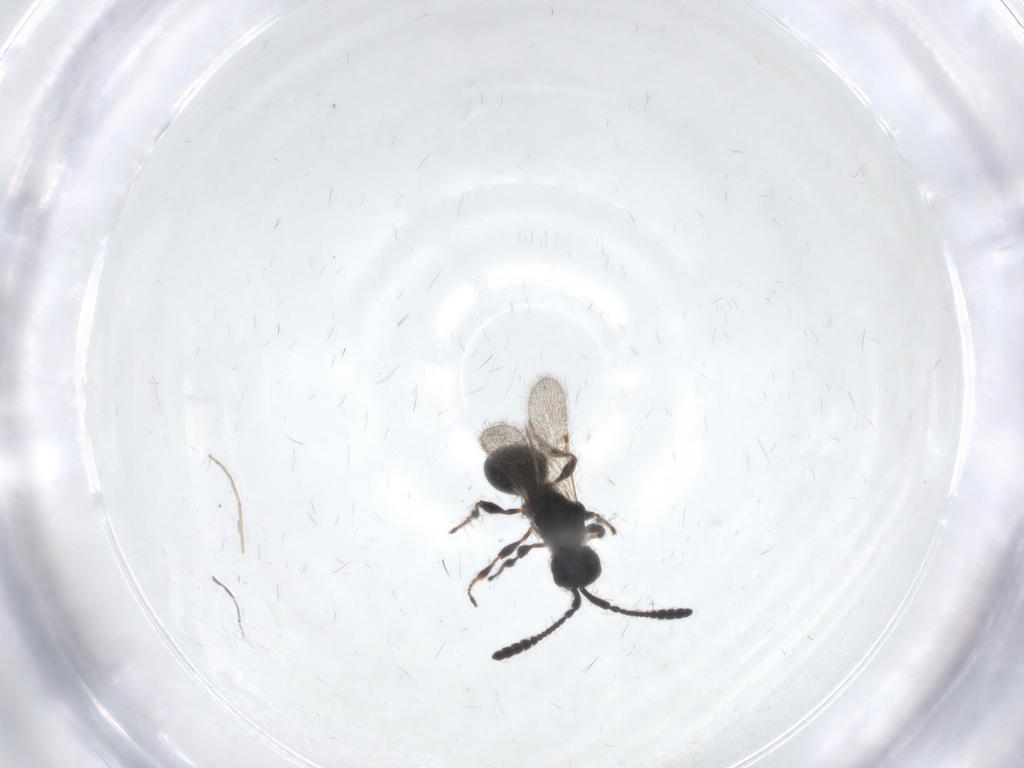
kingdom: Animalia
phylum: Arthropoda
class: Insecta
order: Hymenoptera
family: Diapriidae
